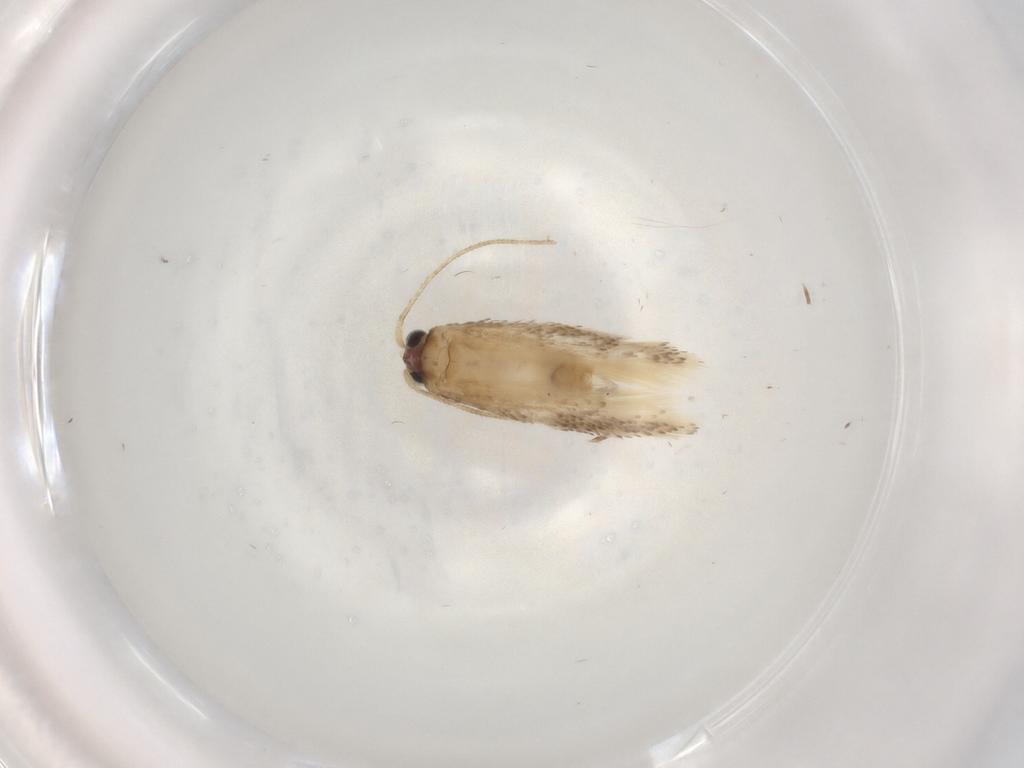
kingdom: Animalia
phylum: Arthropoda
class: Insecta
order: Lepidoptera
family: Nepticulidae
